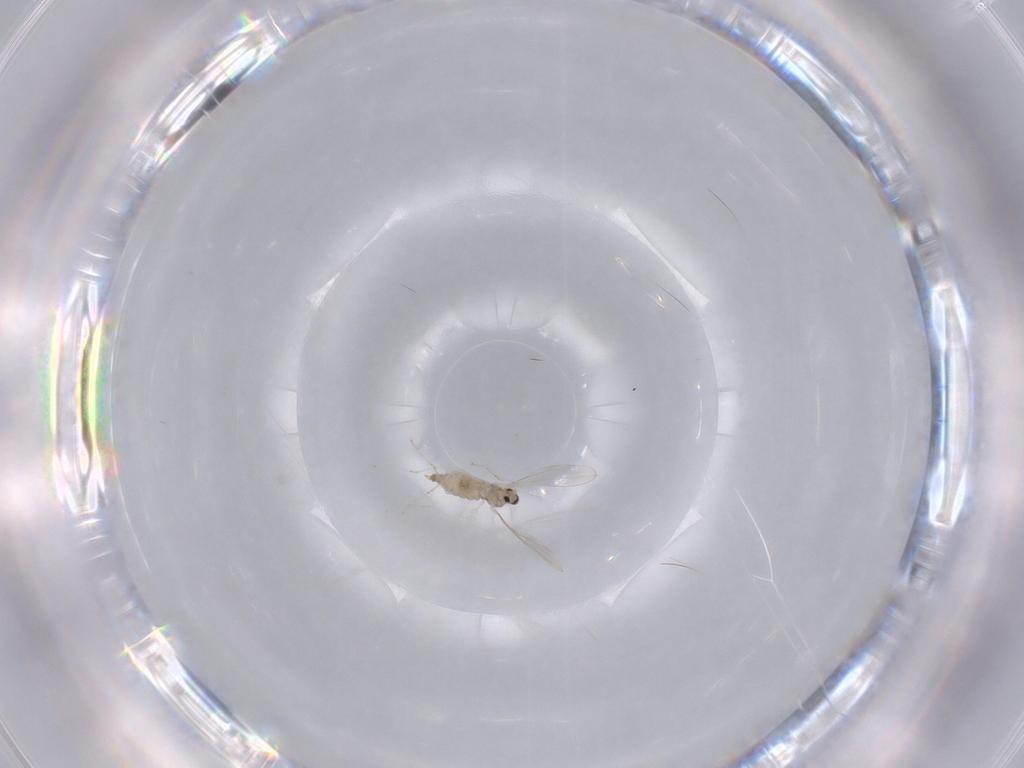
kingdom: Animalia
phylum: Arthropoda
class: Insecta
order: Diptera
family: Cecidomyiidae
